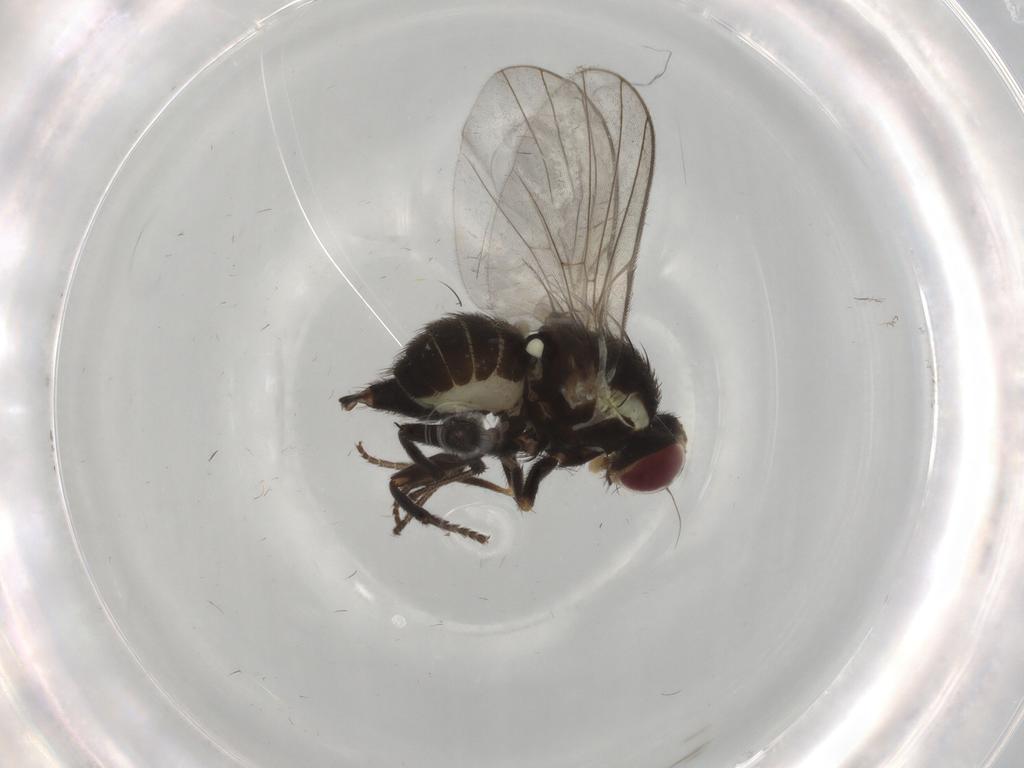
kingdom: Animalia
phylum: Arthropoda
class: Insecta
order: Diptera
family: Agromyzidae
